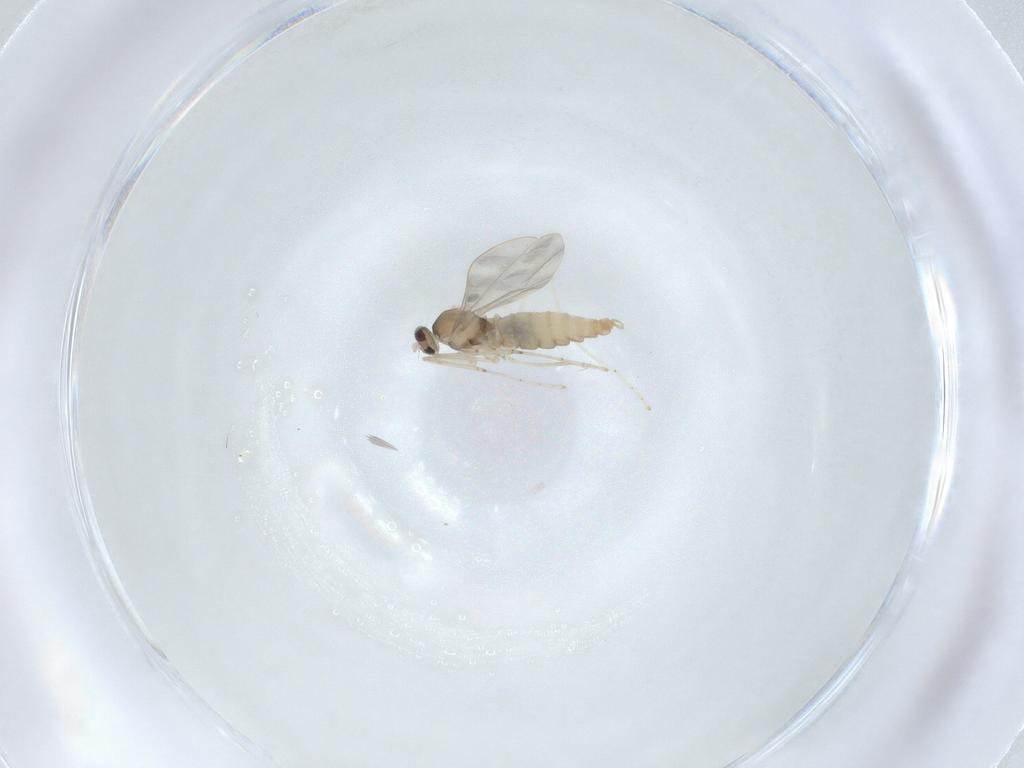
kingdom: Animalia
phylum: Arthropoda
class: Insecta
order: Diptera
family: Cecidomyiidae
